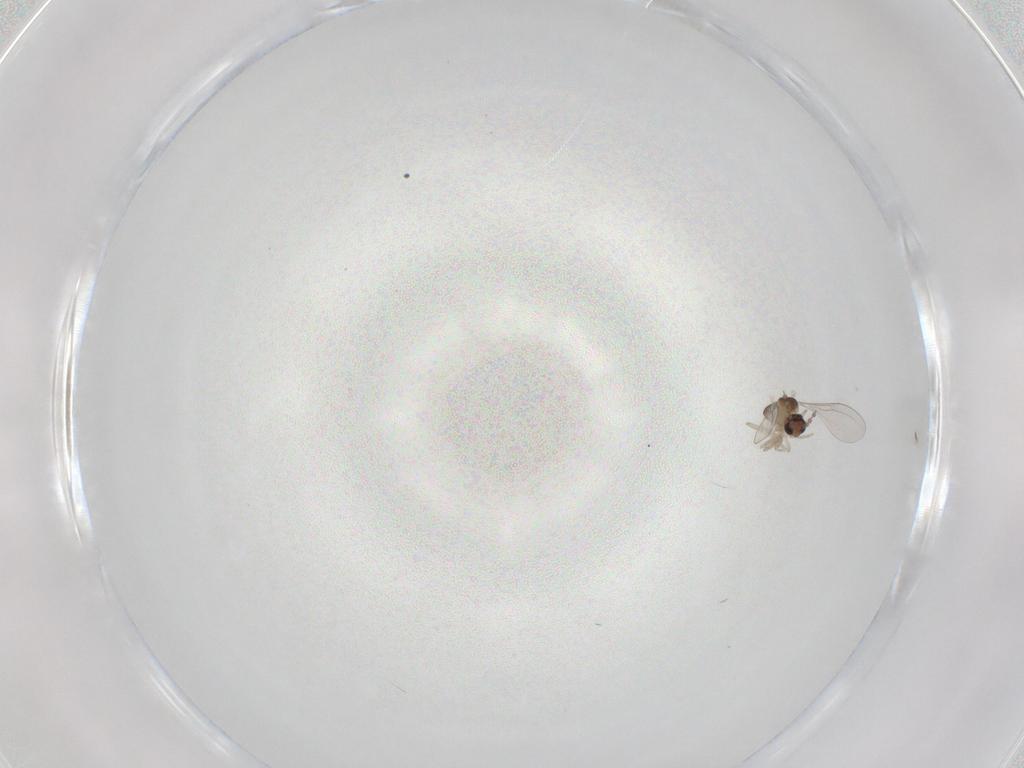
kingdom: Animalia
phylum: Arthropoda
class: Insecta
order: Diptera
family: Cecidomyiidae
